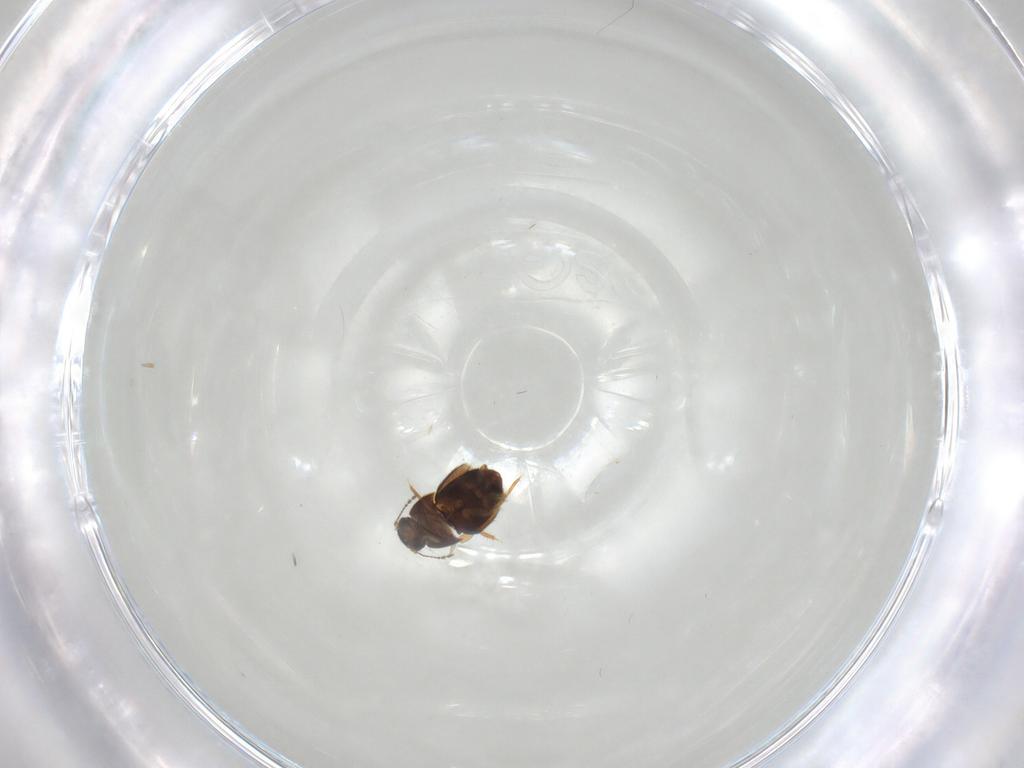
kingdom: Animalia
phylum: Arthropoda
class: Insecta
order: Coleoptera
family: Ptiliidae
